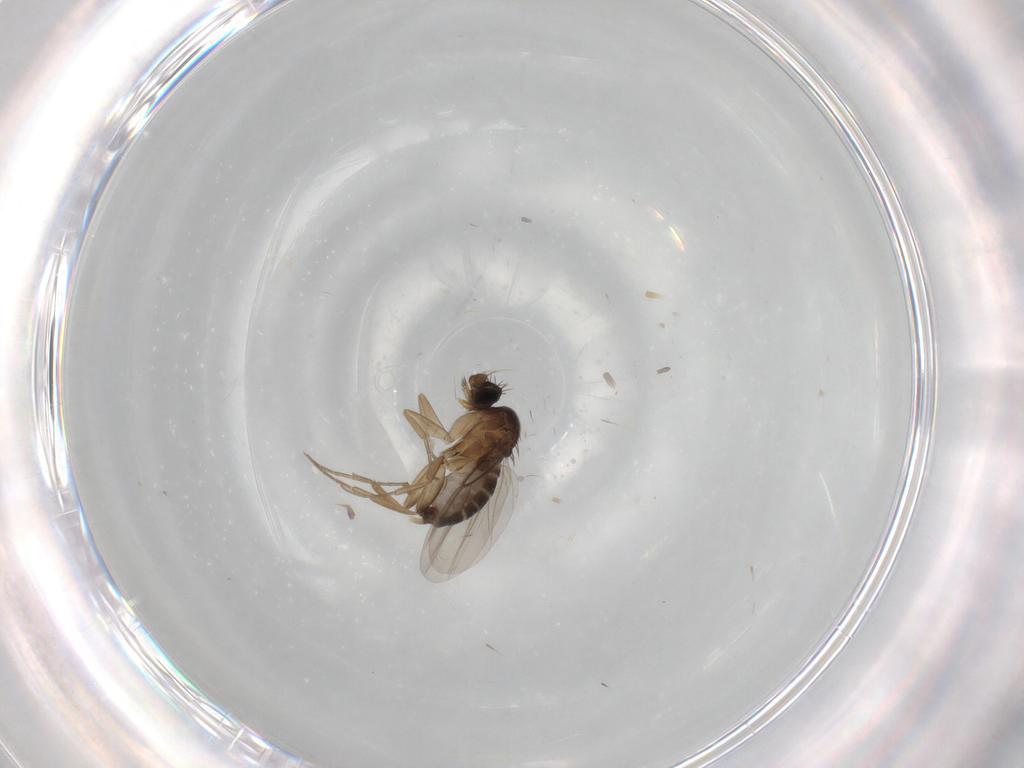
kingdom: Animalia
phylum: Arthropoda
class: Insecta
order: Diptera
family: Phoridae
